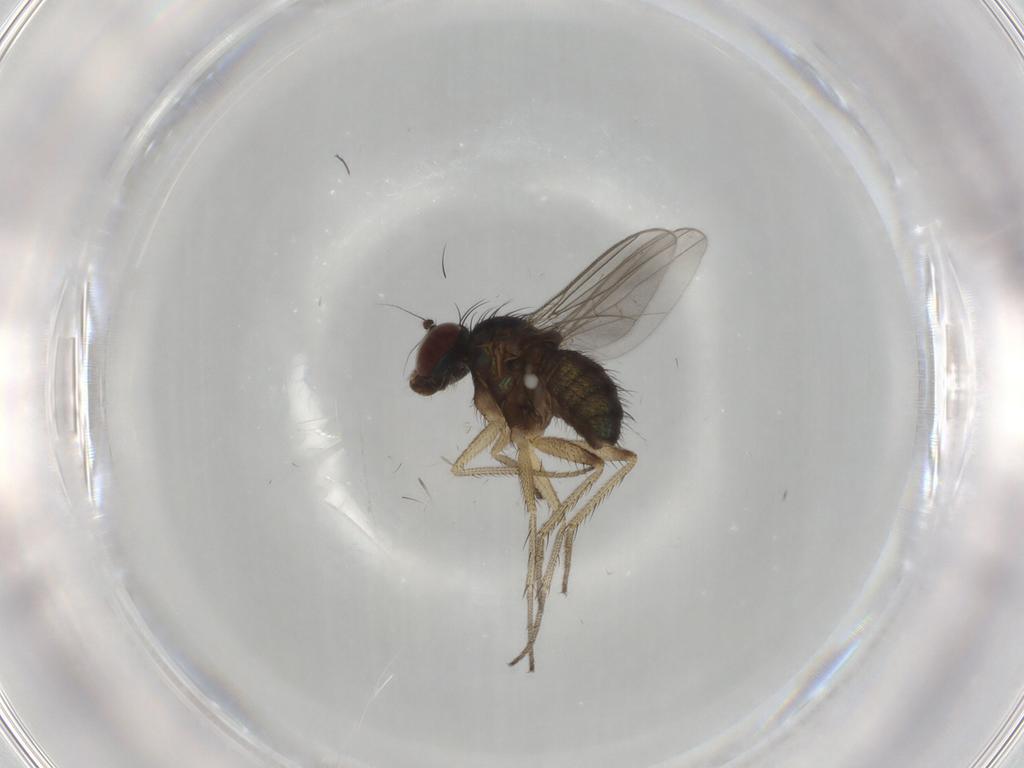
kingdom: Animalia
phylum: Arthropoda
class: Insecta
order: Diptera
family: Dolichopodidae
